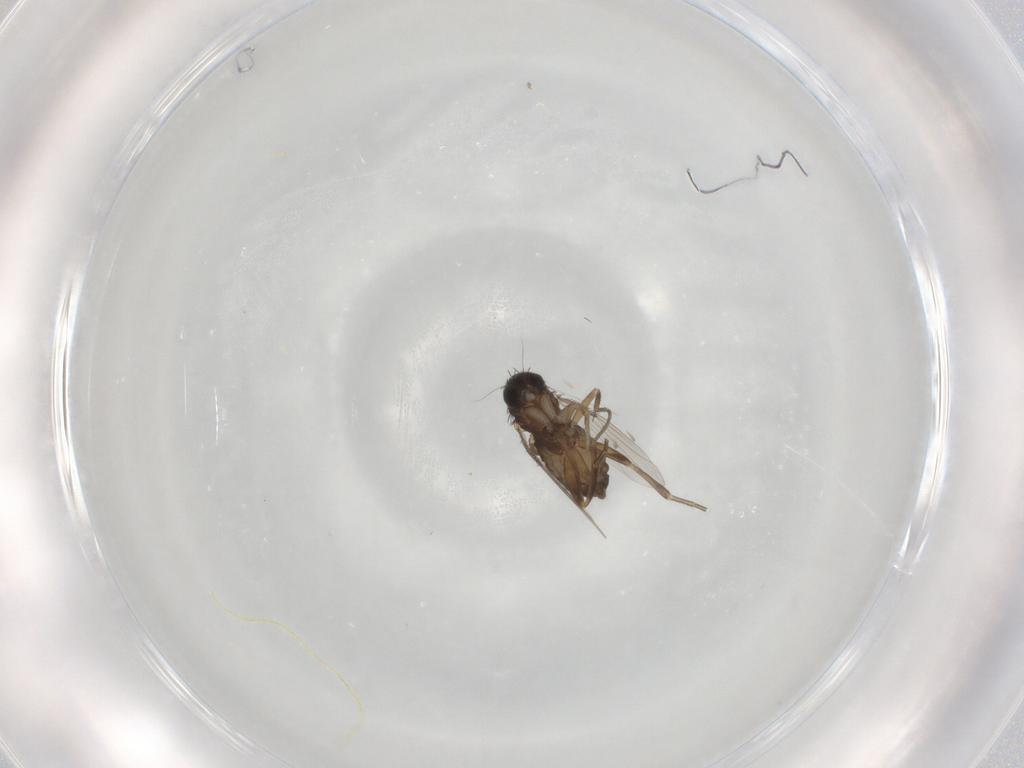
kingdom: Animalia
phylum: Arthropoda
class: Insecta
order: Diptera
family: Phoridae
